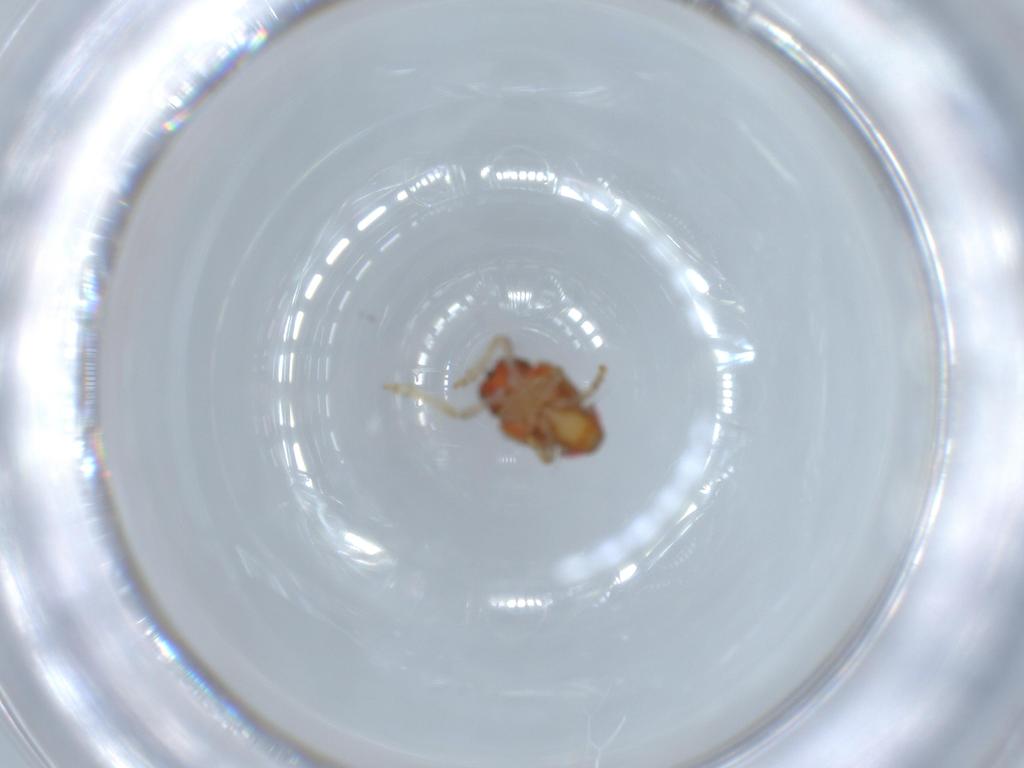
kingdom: Animalia
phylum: Arthropoda
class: Insecta
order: Hemiptera
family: Issidae
